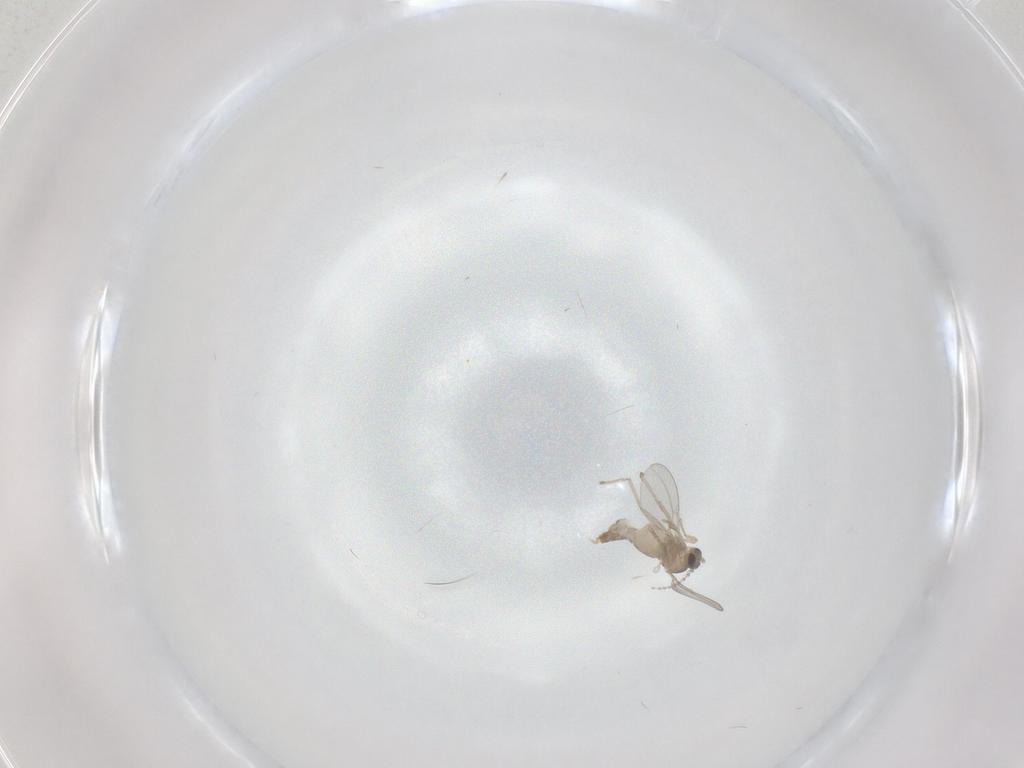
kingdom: Animalia
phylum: Arthropoda
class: Insecta
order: Diptera
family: Cecidomyiidae
